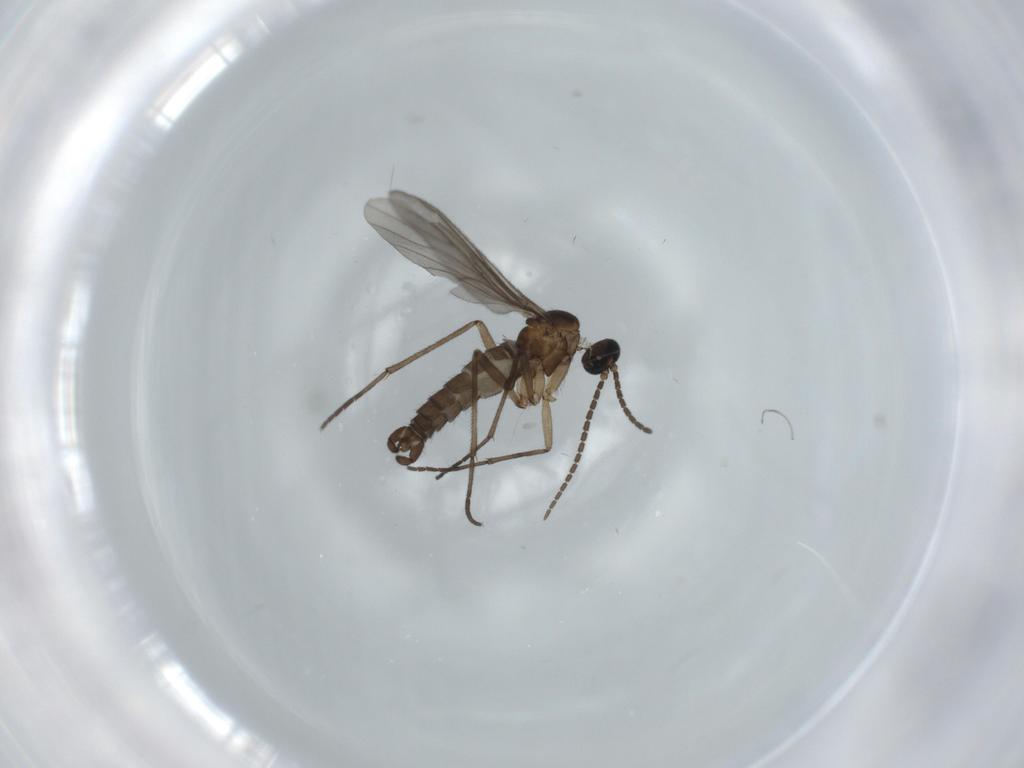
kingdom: Animalia
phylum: Arthropoda
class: Insecta
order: Diptera
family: Sciaridae
